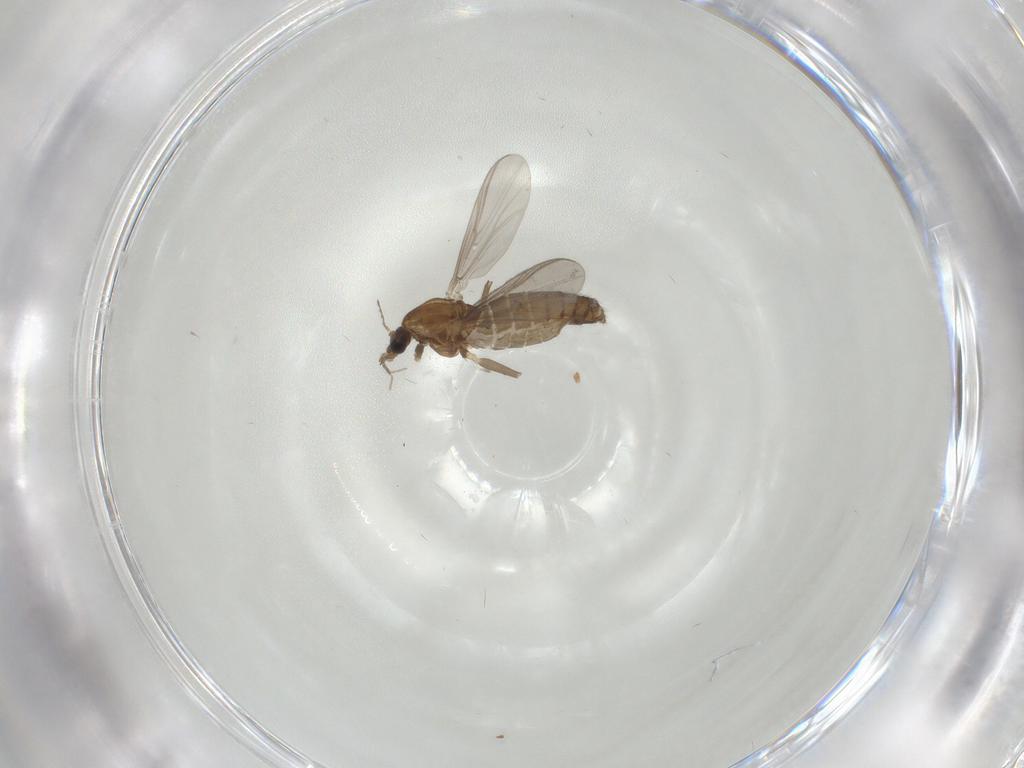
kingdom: Animalia
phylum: Arthropoda
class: Insecta
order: Diptera
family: Chironomidae
